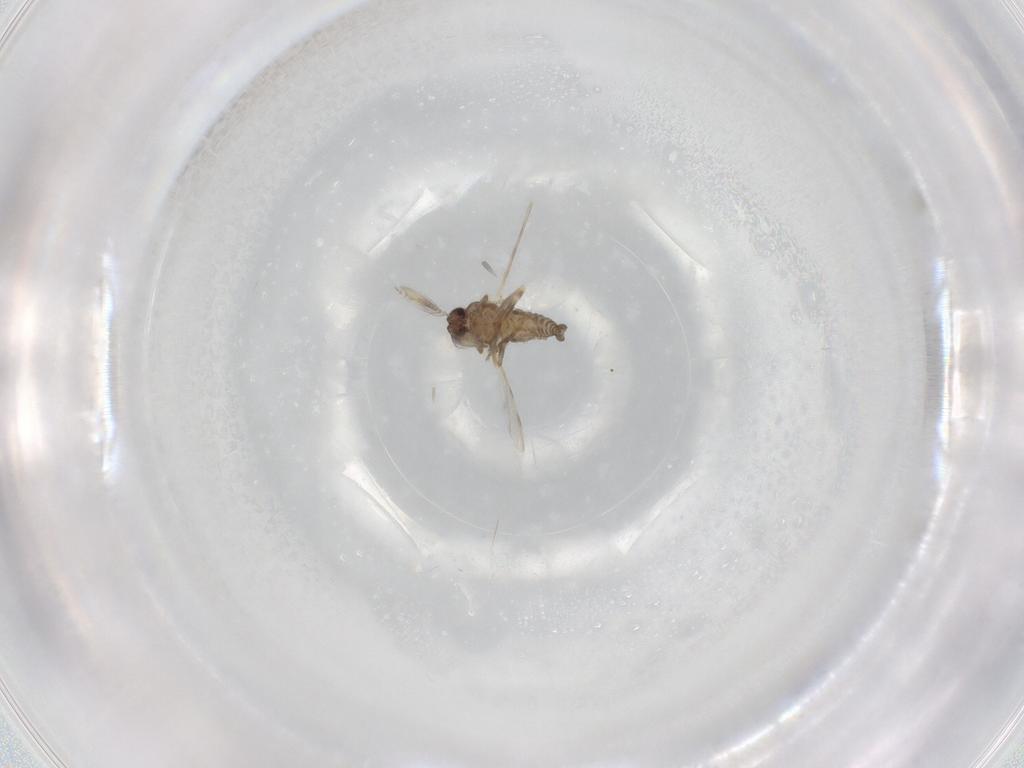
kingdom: Animalia
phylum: Arthropoda
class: Insecta
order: Diptera
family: Ceratopogonidae
